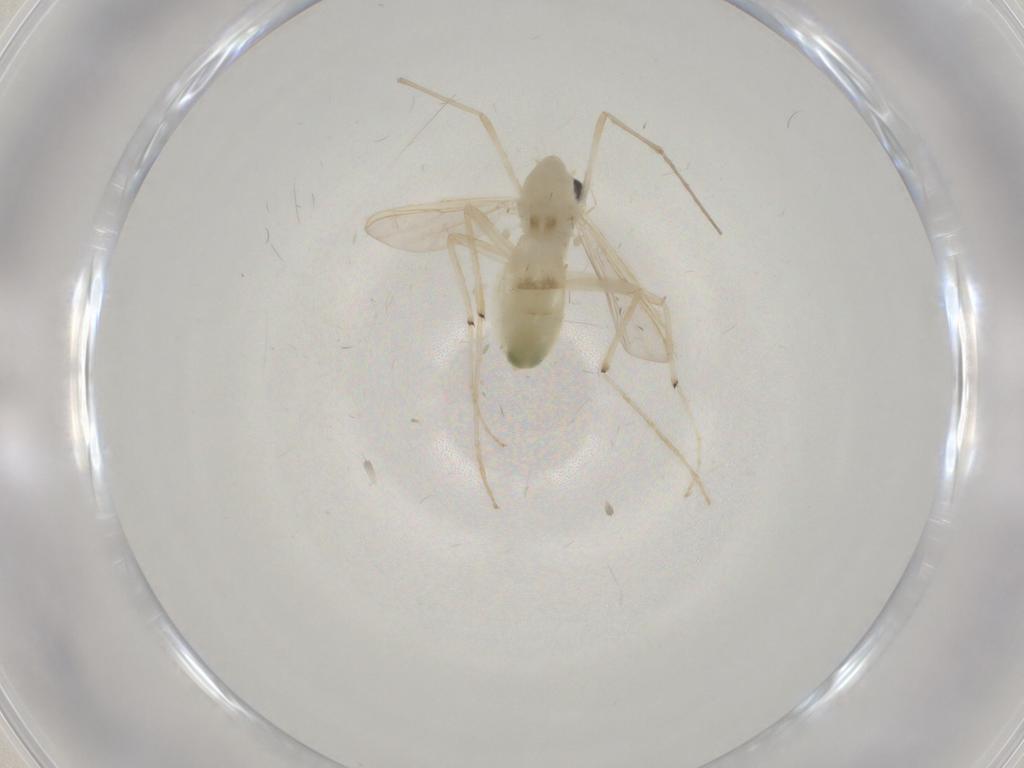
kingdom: Animalia
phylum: Arthropoda
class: Insecta
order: Diptera
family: Chironomidae
